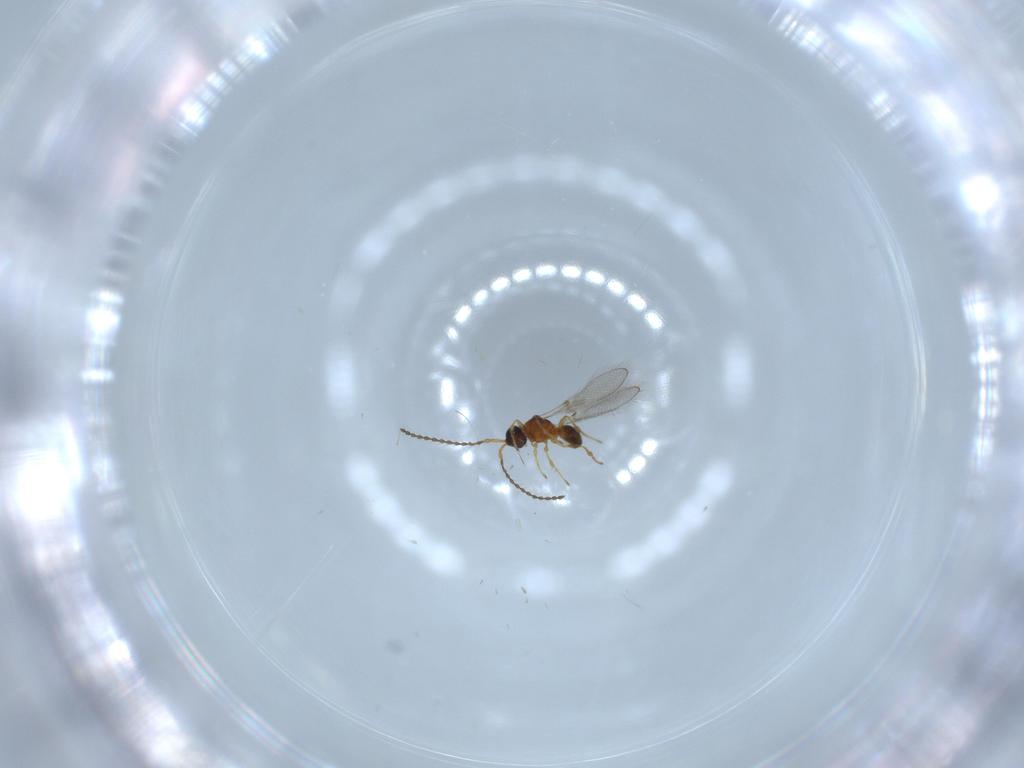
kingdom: Animalia
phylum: Arthropoda
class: Insecta
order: Hymenoptera
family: Diapriidae
